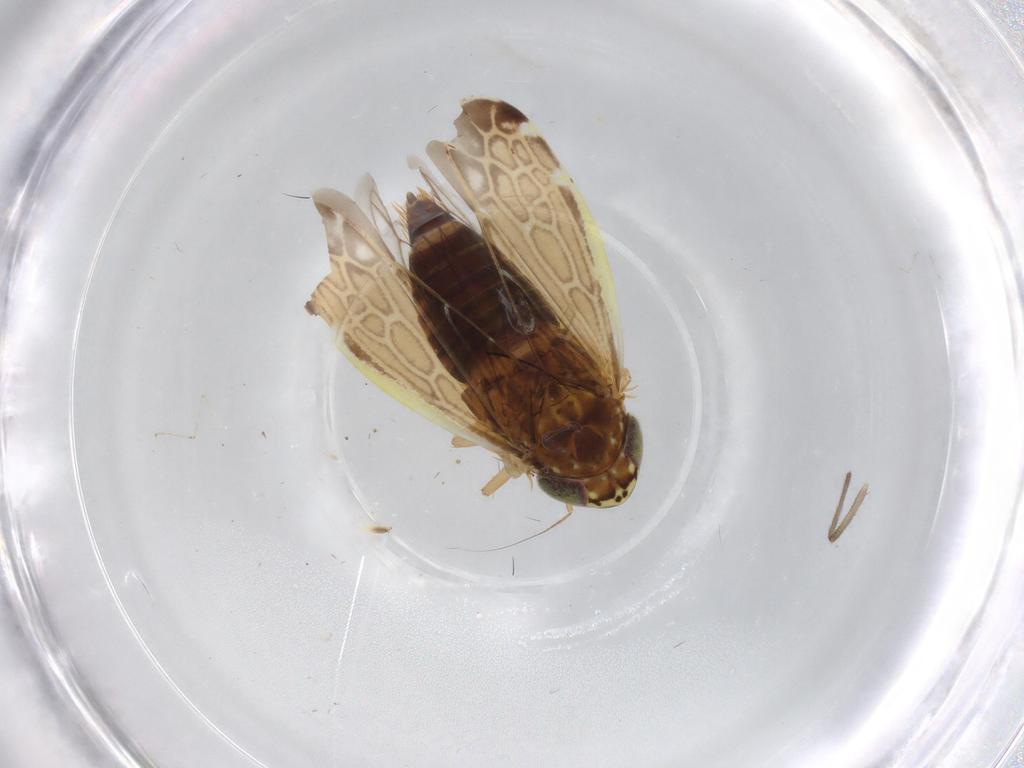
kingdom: Animalia
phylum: Arthropoda
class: Insecta
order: Hemiptera
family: Cicadellidae
